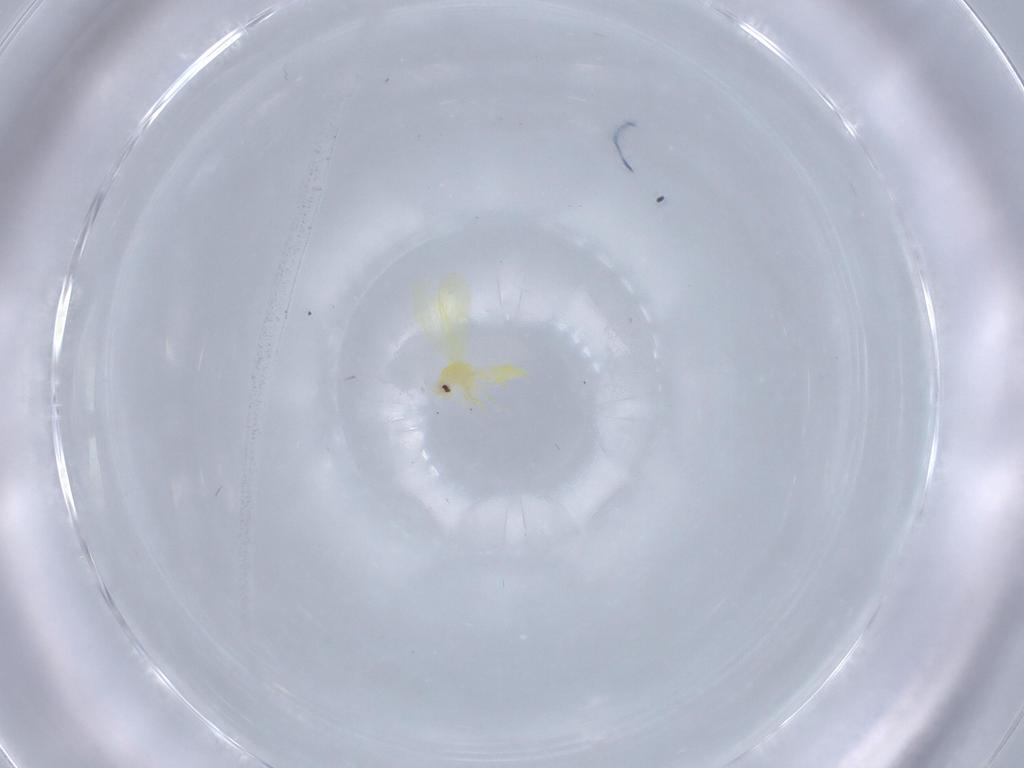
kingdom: Animalia
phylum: Arthropoda
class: Insecta
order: Hemiptera
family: Aleyrodidae
